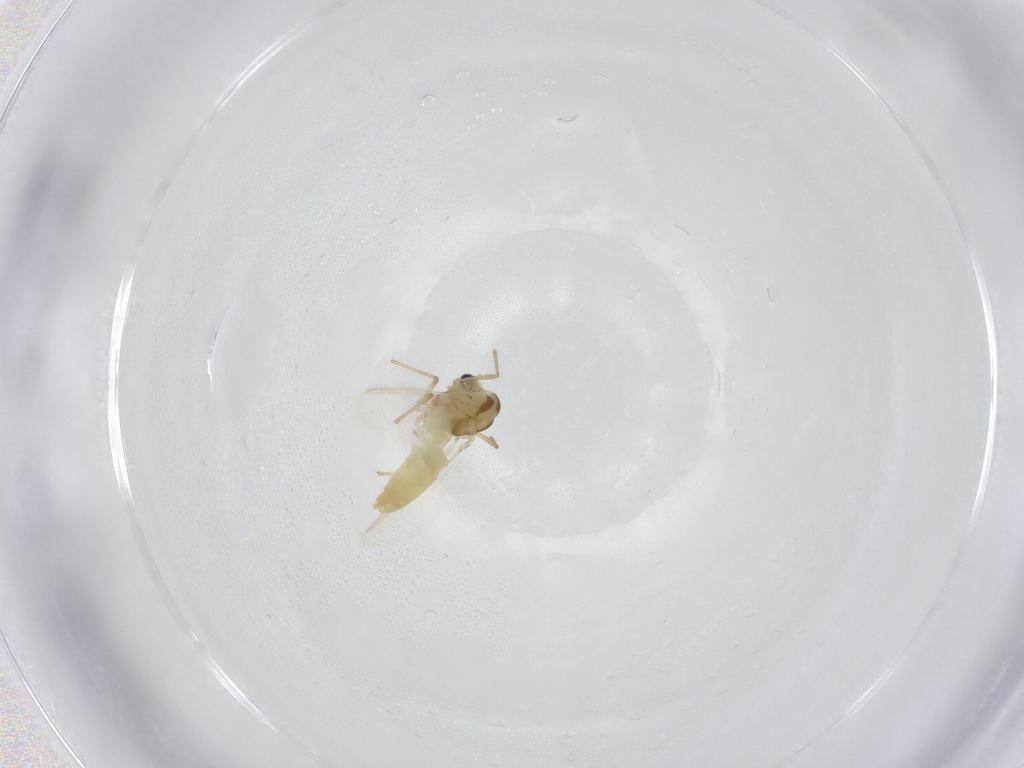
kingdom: Animalia
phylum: Arthropoda
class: Insecta
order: Diptera
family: Chironomidae
